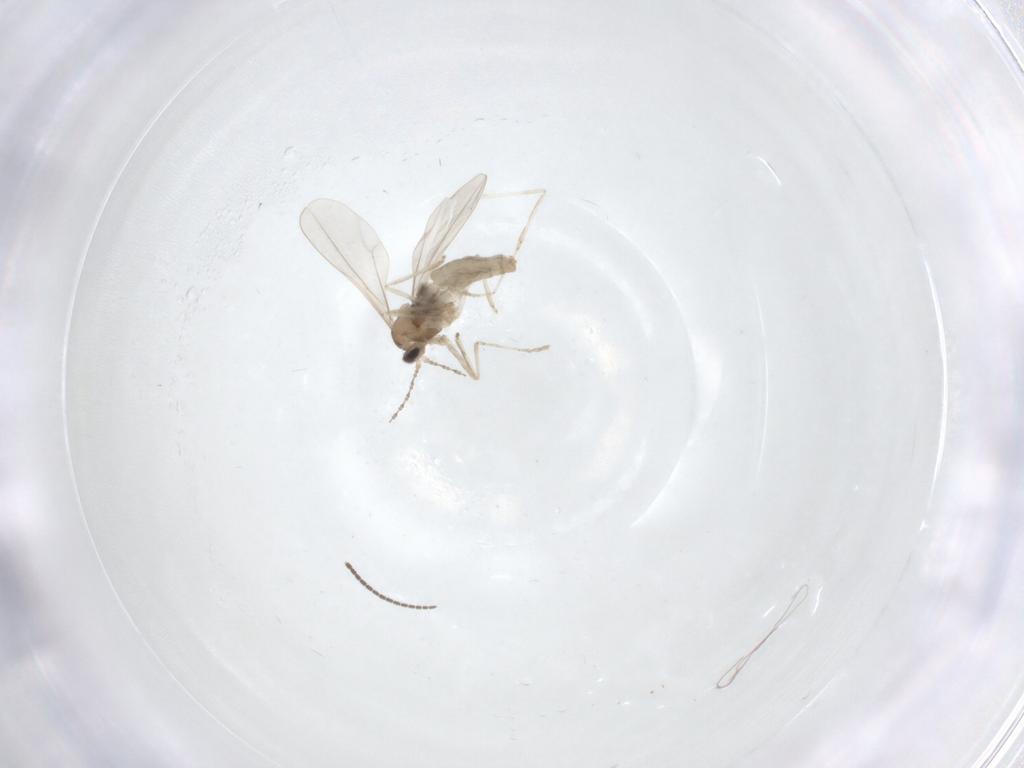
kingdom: Animalia
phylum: Arthropoda
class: Insecta
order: Diptera
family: Cecidomyiidae
